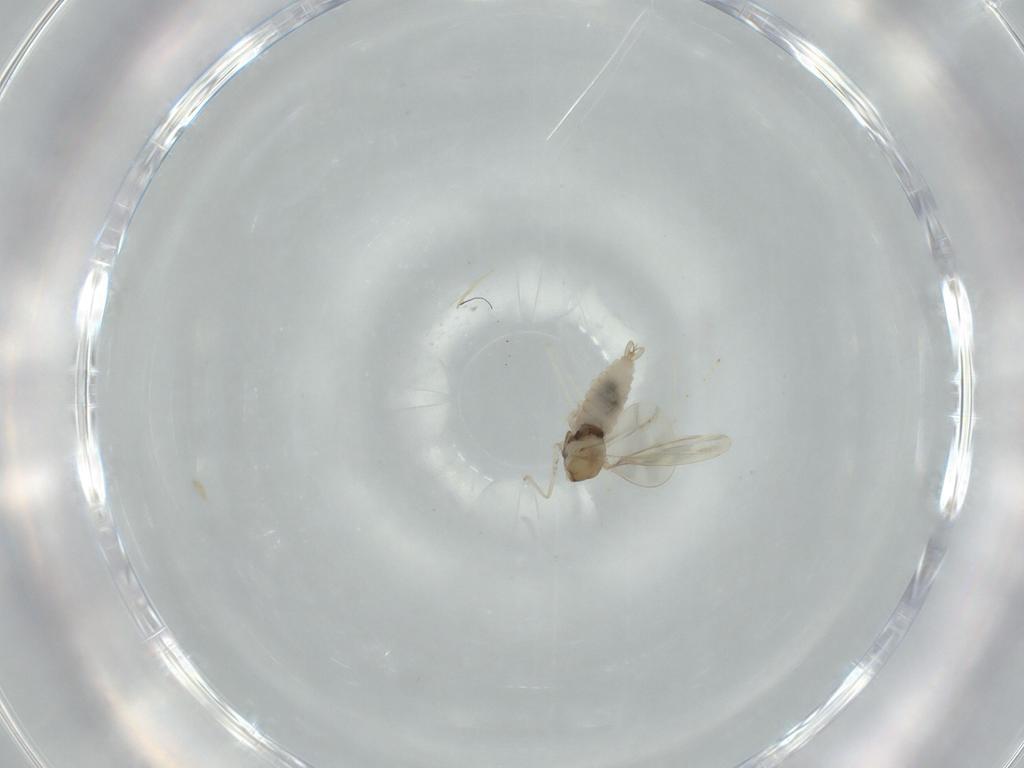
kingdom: Animalia
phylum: Arthropoda
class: Insecta
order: Diptera
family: Sciaridae
